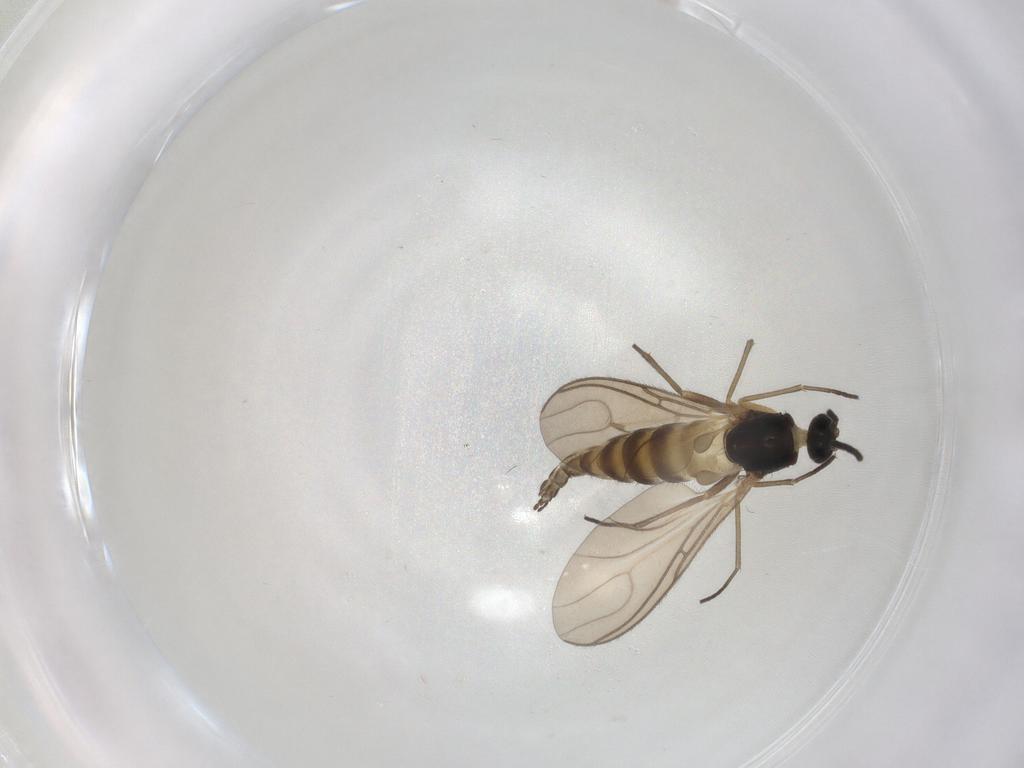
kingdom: Animalia
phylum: Arthropoda
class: Insecta
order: Diptera
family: Sciaridae
